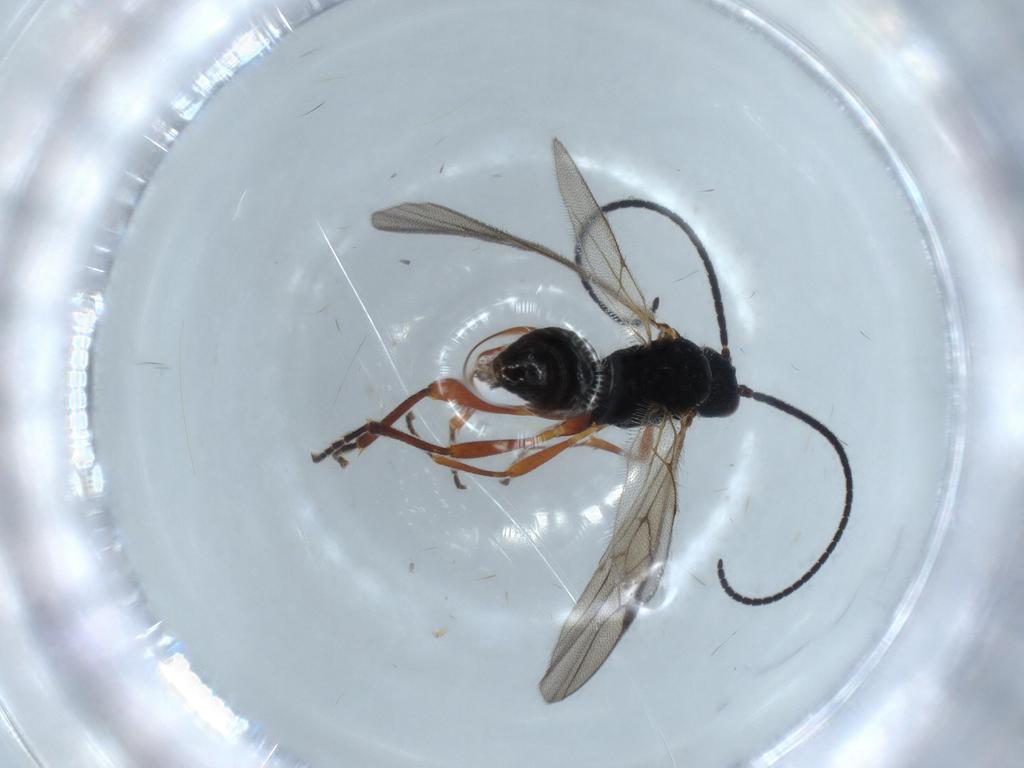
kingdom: Animalia
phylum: Arthropoda
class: Insecta
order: Hymenoptera
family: Braconidae
